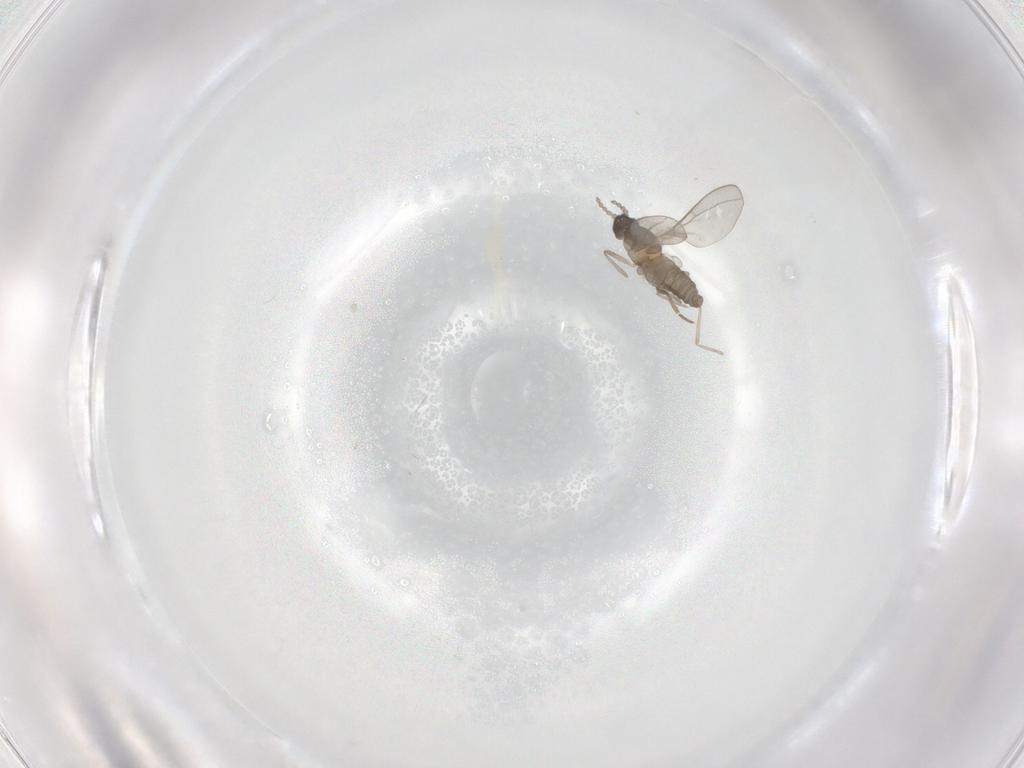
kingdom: Animalia
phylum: Arthropoda
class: Insecta
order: Diptera
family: Cecidomyiidae
